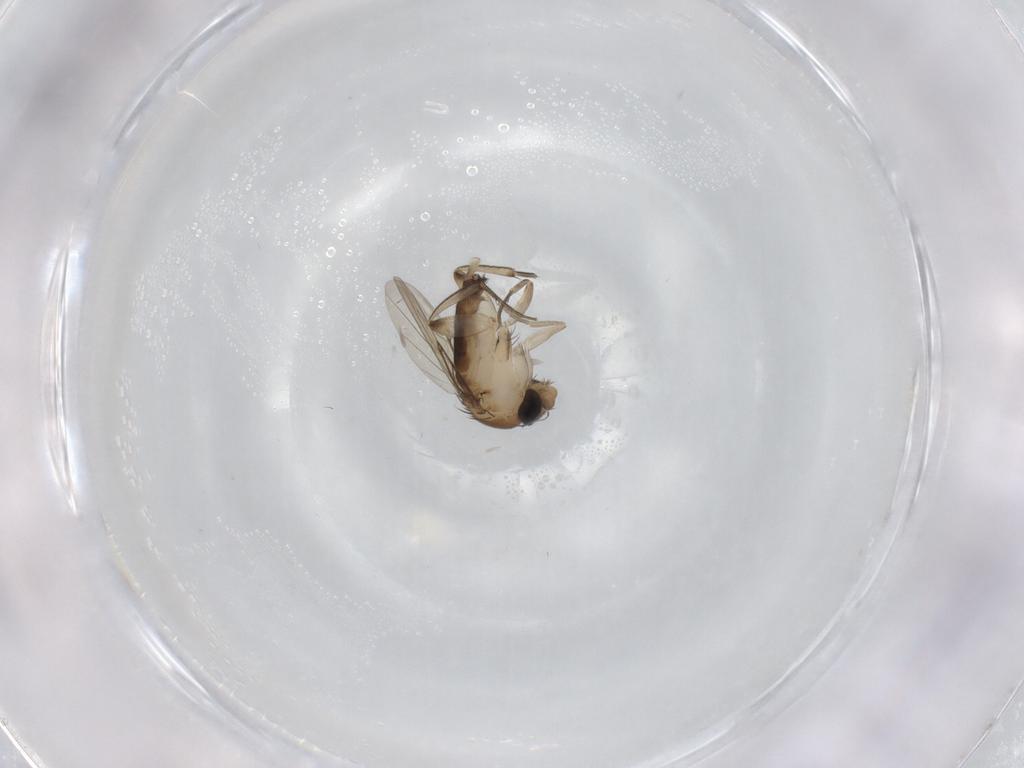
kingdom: Animalia
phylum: Arthropoda
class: Insecta
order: Diptera
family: Phoridae
